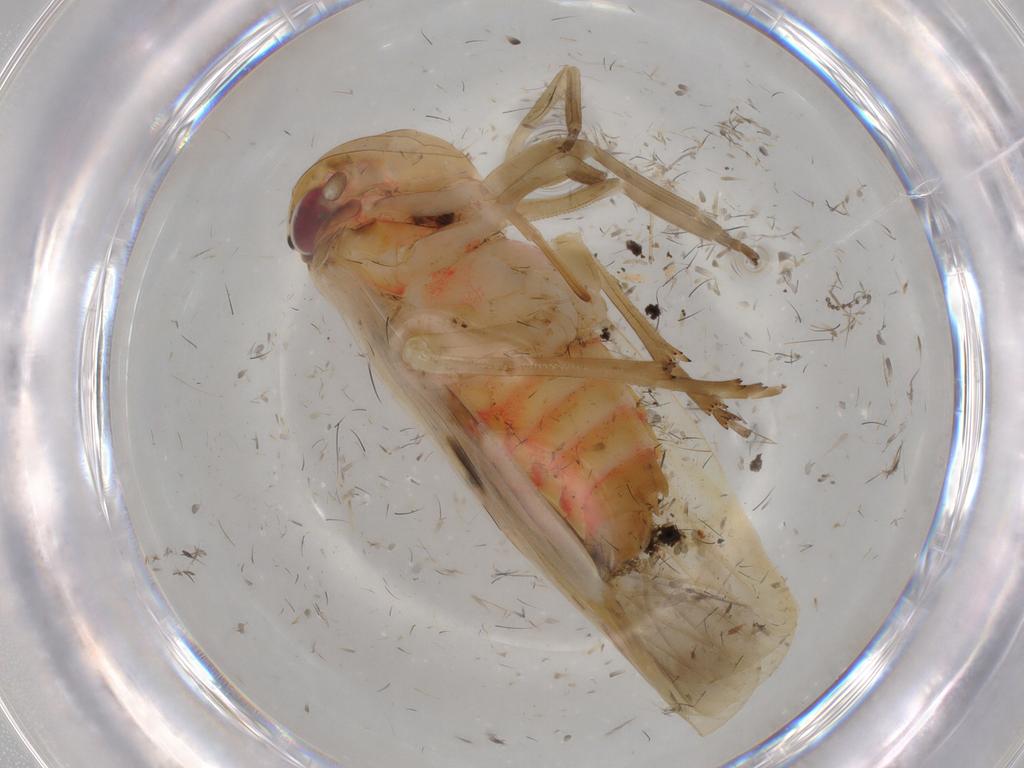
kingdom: Animalia
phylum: Arthropoda
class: Insecta
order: Hemiptera
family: Achilidae
